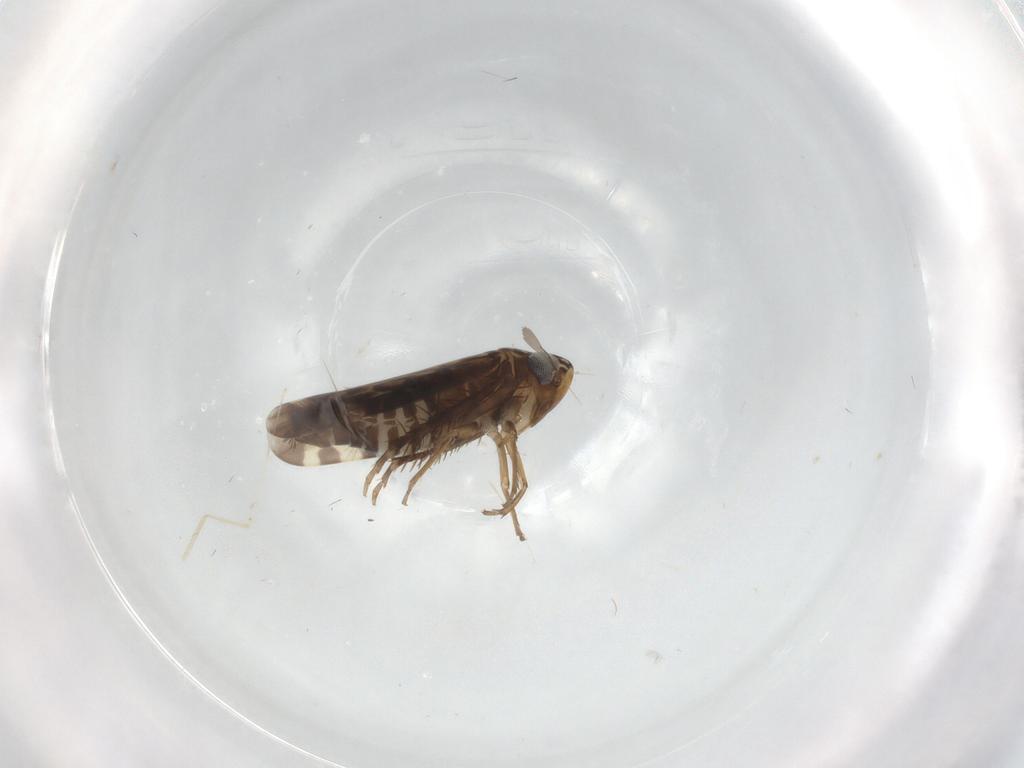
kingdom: Animalia
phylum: Arthropoda
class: Insecta
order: Hemiptera
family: Cicadellidae
